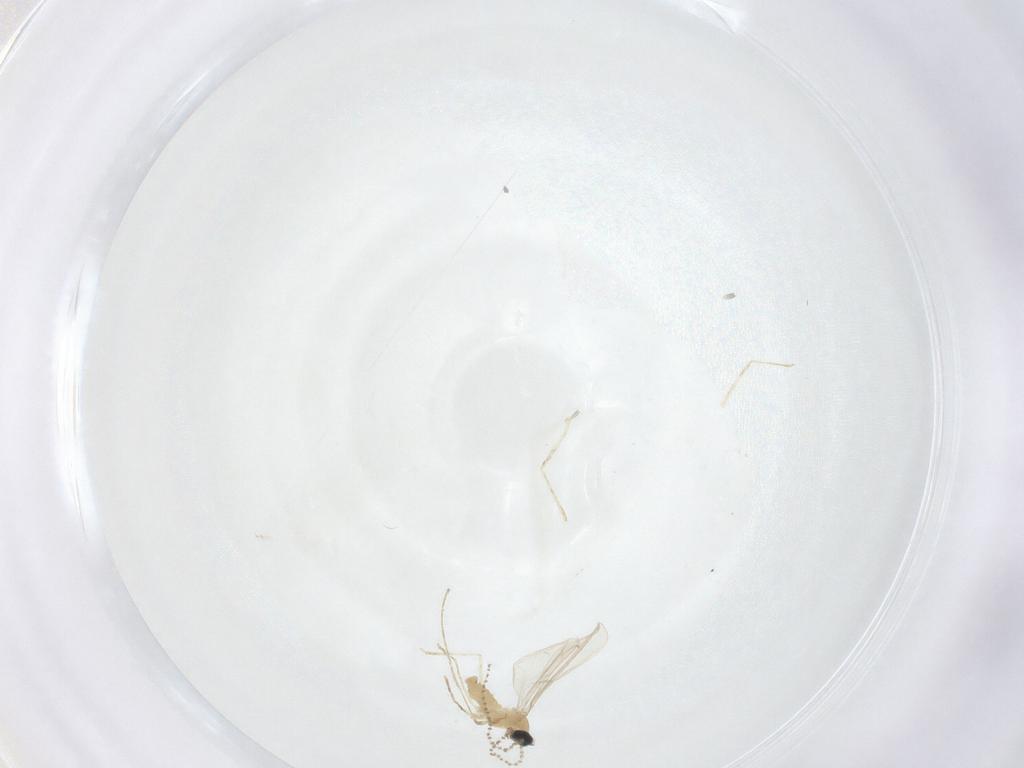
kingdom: Animalia
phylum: Arthropoda
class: Insecta
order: Diptera
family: Cecidomyiidae
